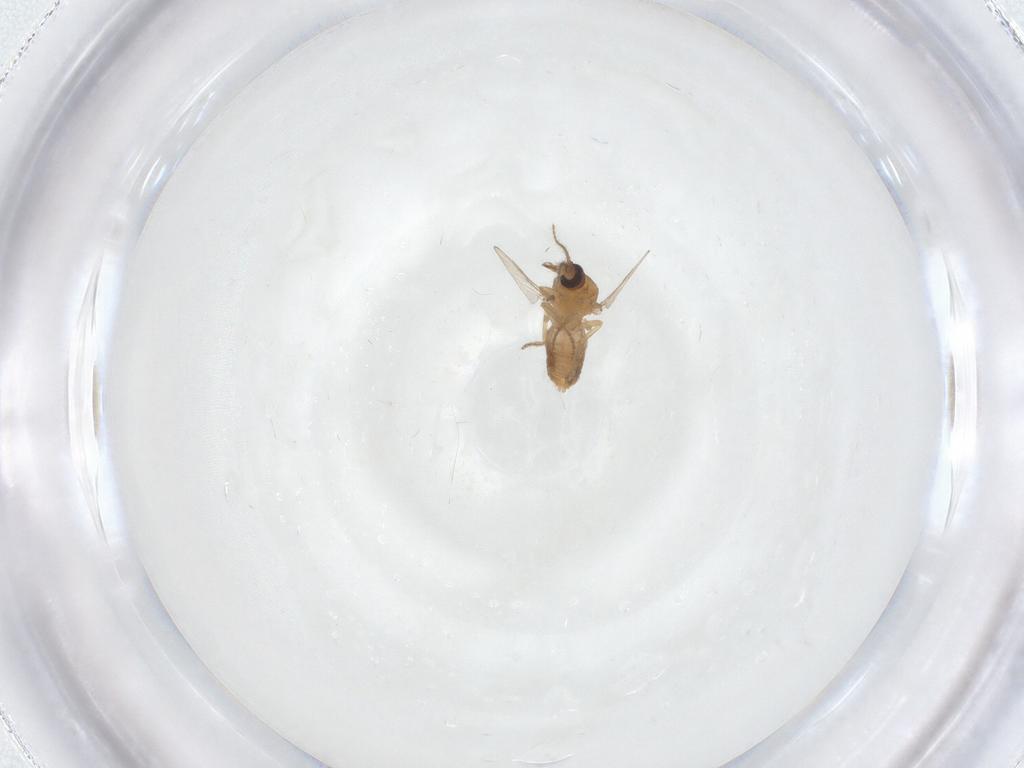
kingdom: Animalia
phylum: Arthropoda
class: Insecta
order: Diptera
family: Ceratopogonidae
